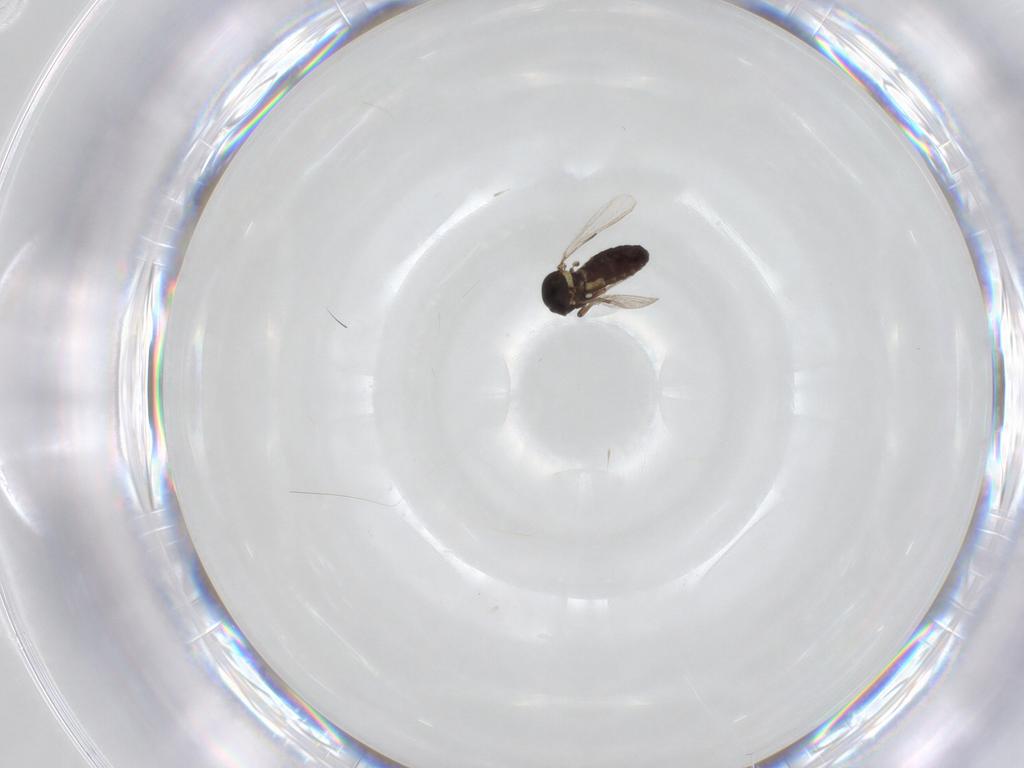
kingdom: Animalia
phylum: Arthropoda
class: Insecta
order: Diptera
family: Ceratopogonidae
